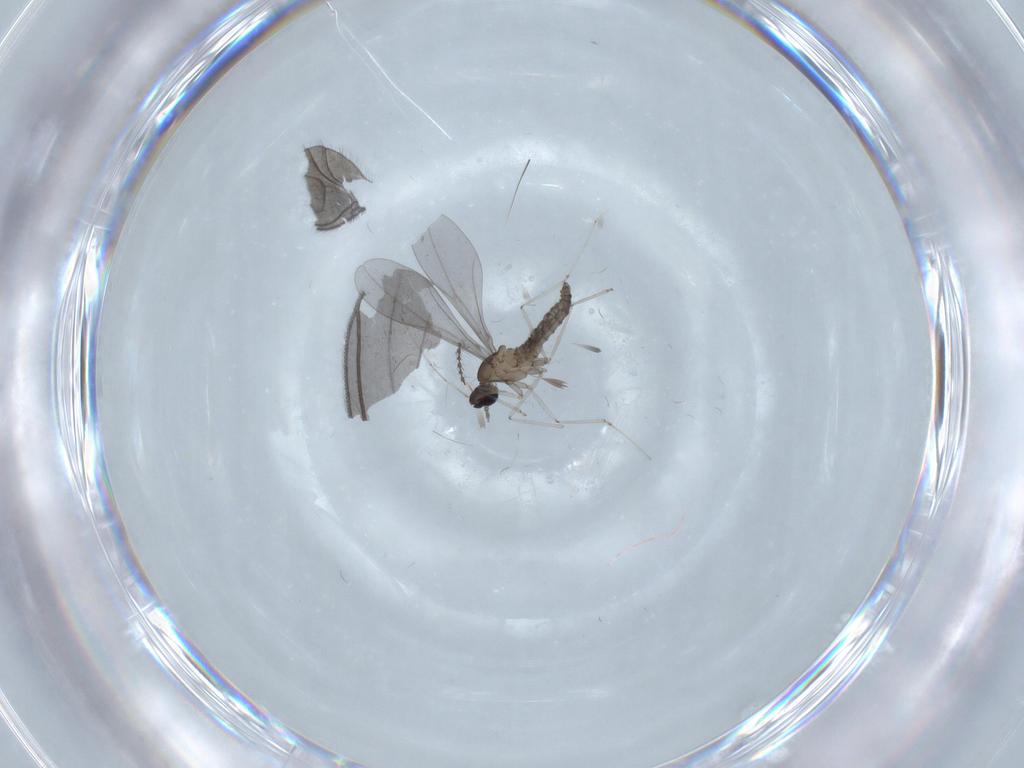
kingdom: Animalia
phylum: Arthropoda
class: Insecta
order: Diptera
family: Sciaridae
